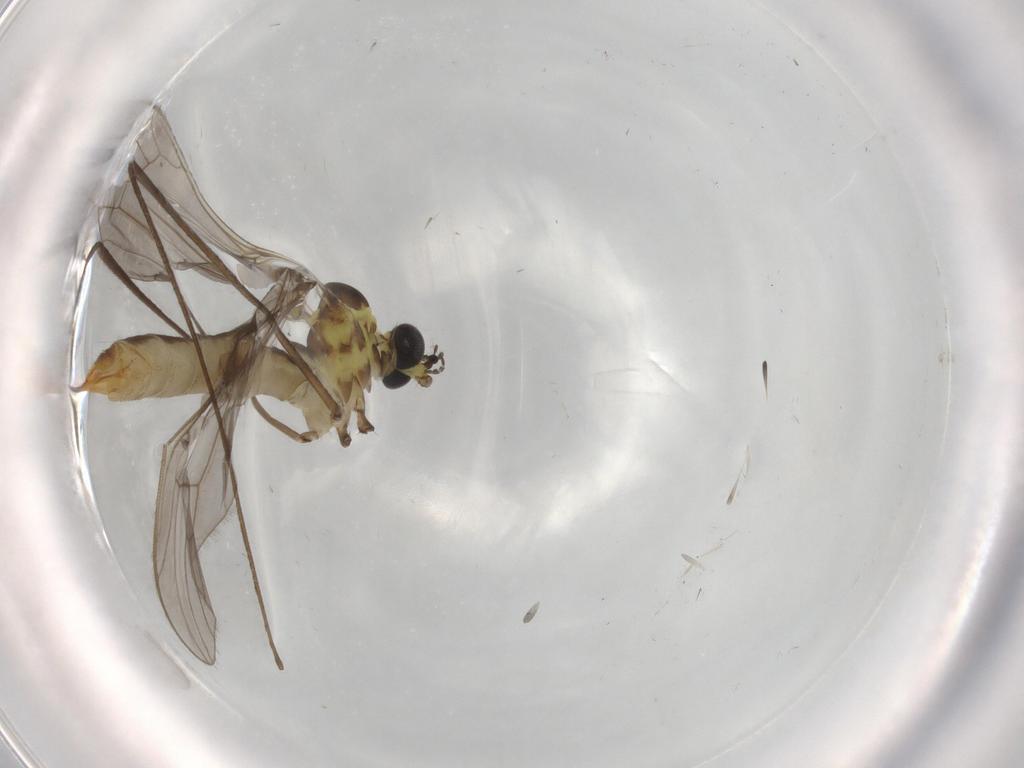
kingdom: Animalia
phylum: Arthropoda
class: Insecta
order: Diptera
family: Limoniidae
